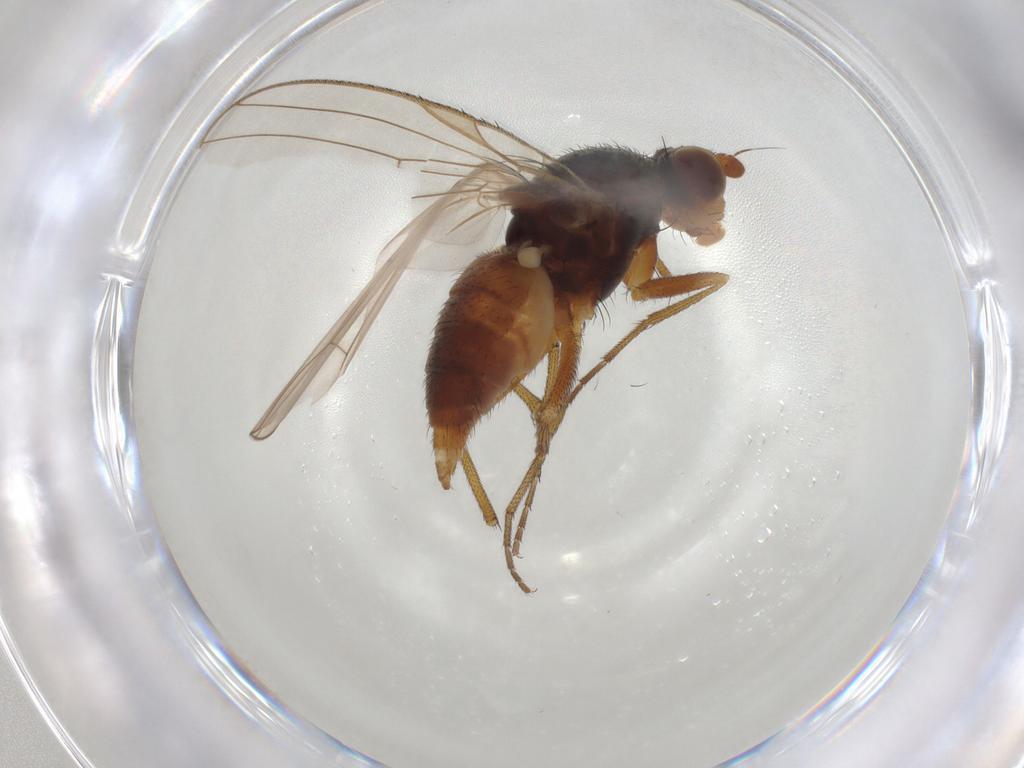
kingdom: Animalia
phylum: Arthropoda
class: Insecta
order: Diptera
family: Heleomyzidae
